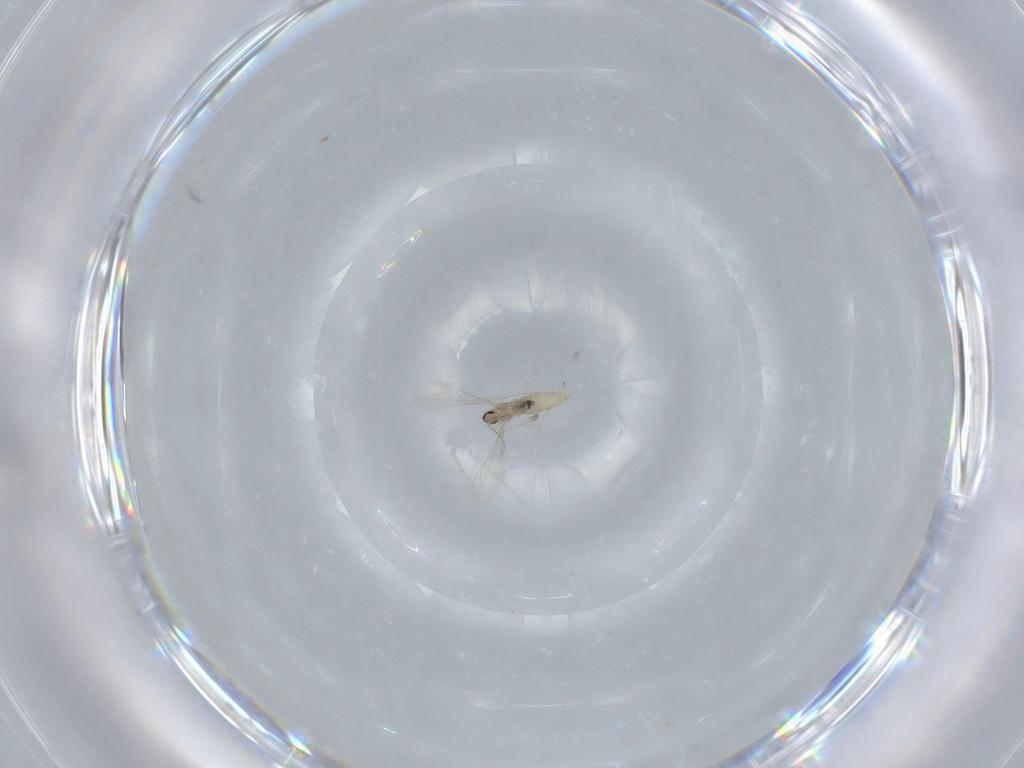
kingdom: Animalia
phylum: Arthropoda
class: Insecta
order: Diptera
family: Cecidomyiidae
